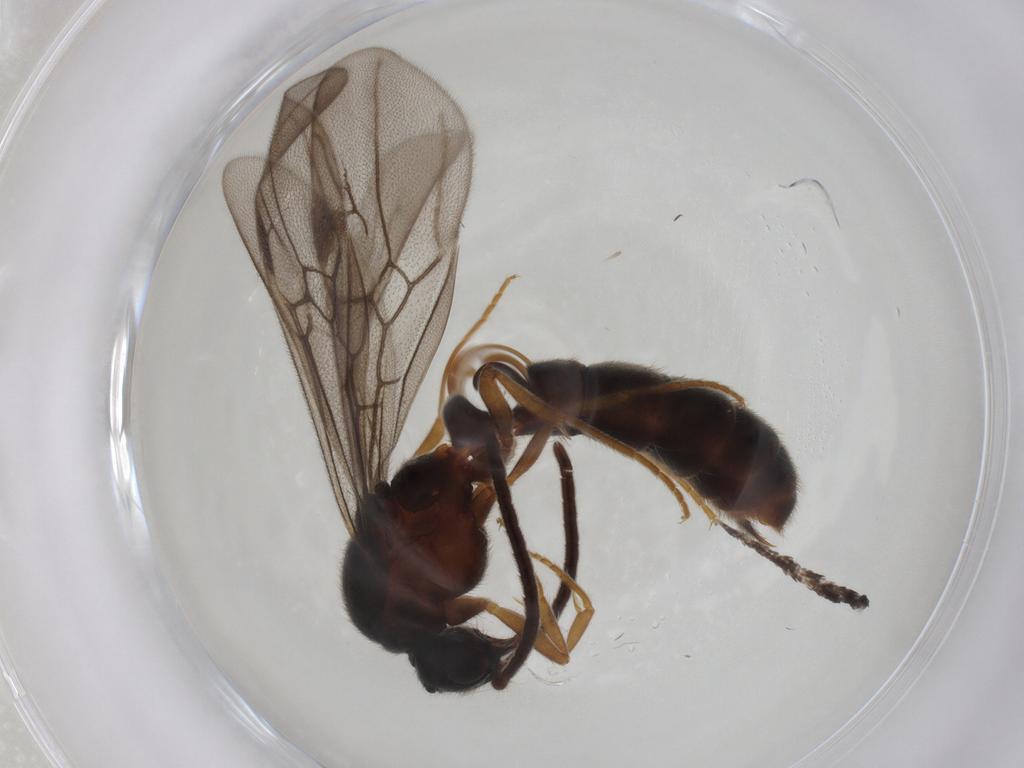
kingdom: Animalia
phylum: Arthropoda
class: Insecta
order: Hymenoptera
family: Formicidae
